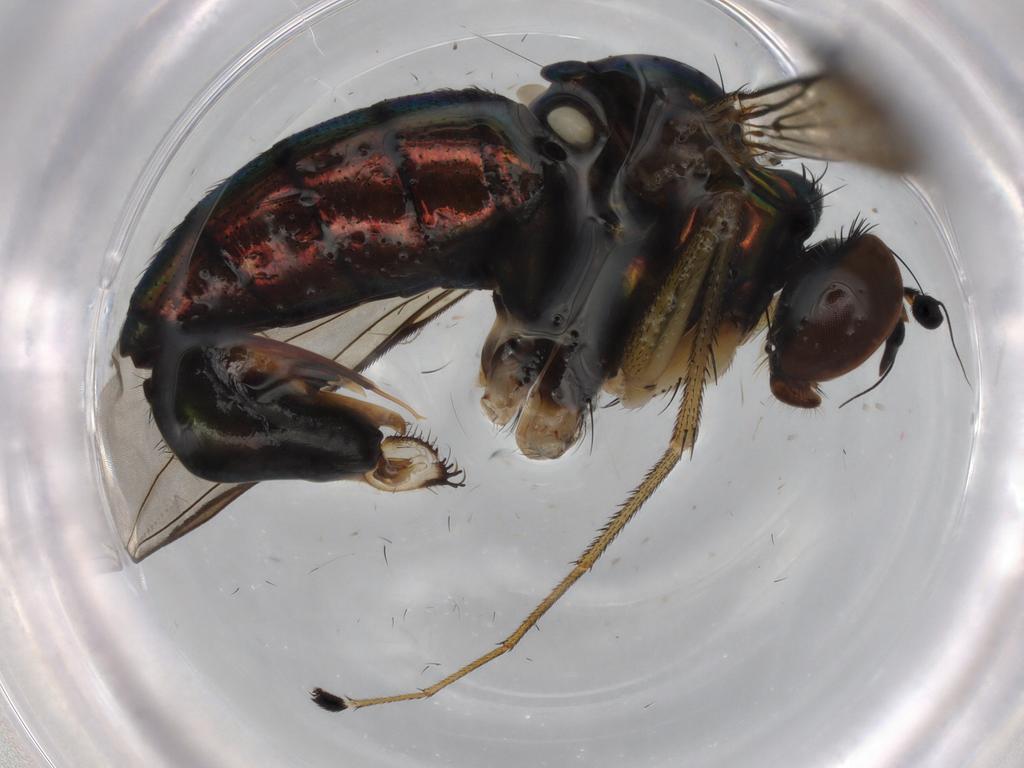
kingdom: Animalia
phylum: Arthropoda
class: Insecta
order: Diptera
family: Dolichopodidae
